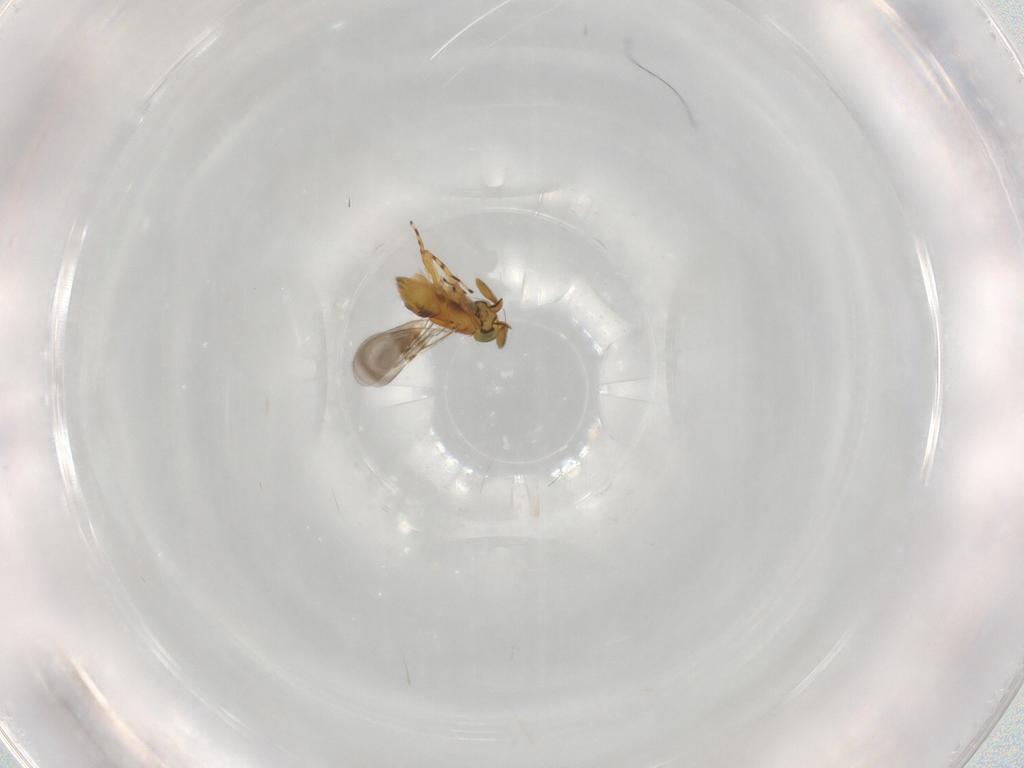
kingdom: Animalia
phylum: Arthropoda
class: Insecta
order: Hymenoptera
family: Encyrtidae
